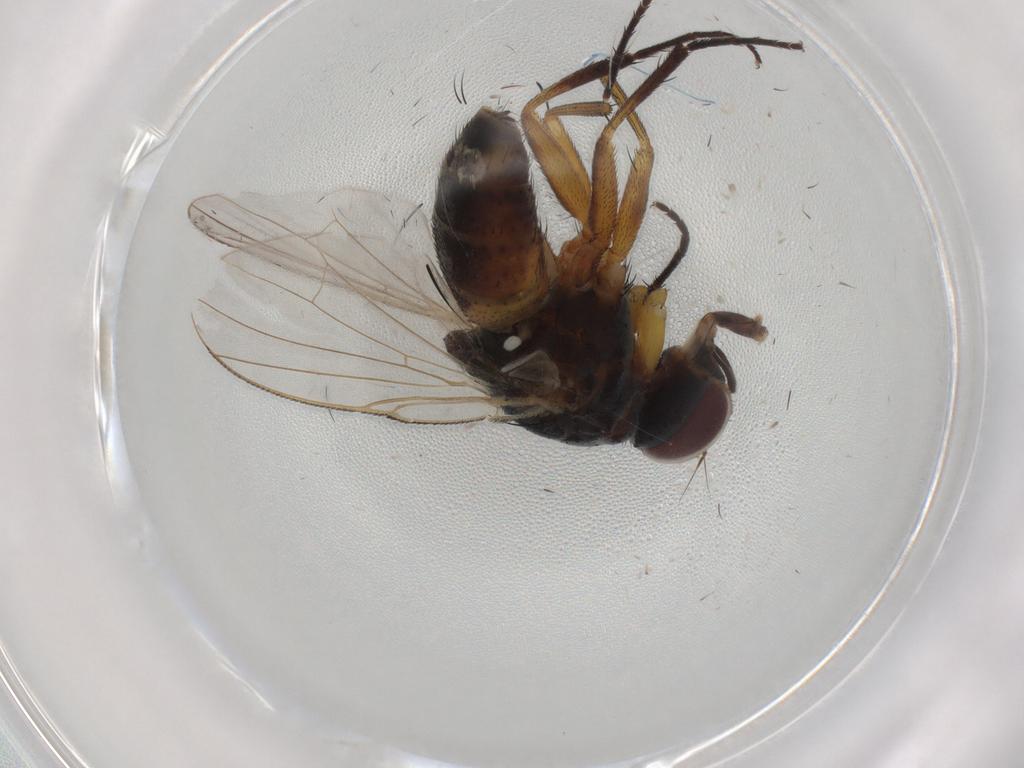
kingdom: Animalia
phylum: Arthropoda
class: Insecta
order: Diptera
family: Muscidae
